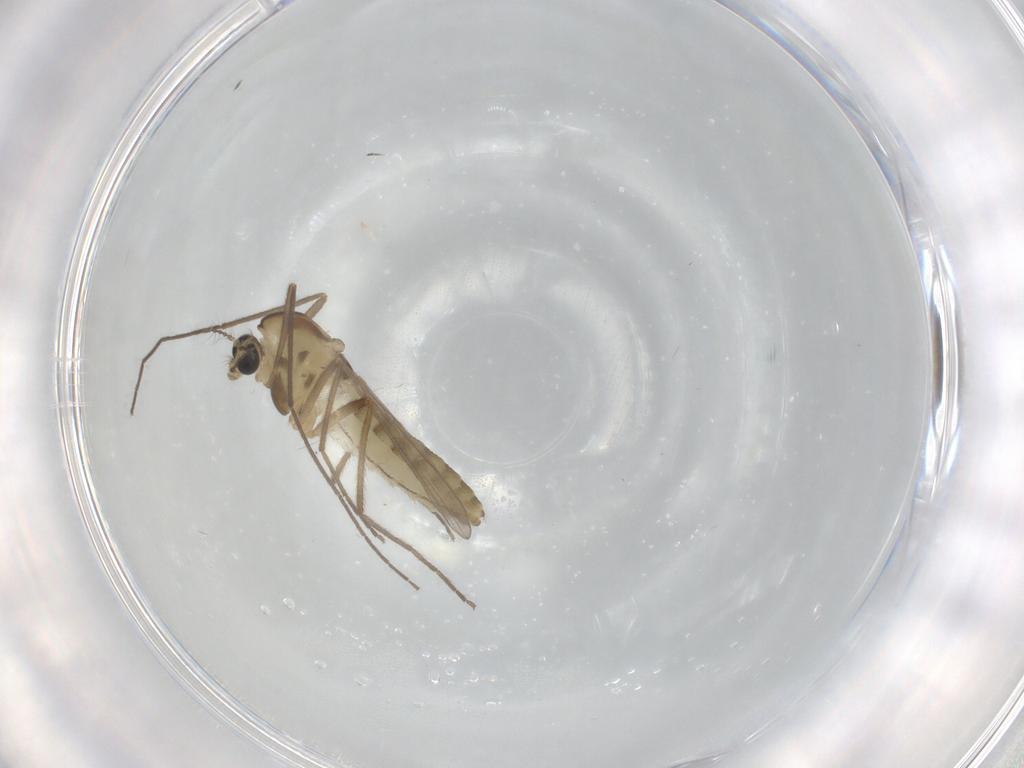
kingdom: Animalia
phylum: Arthropoda
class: Insecta
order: Diptera
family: Chironomidae
